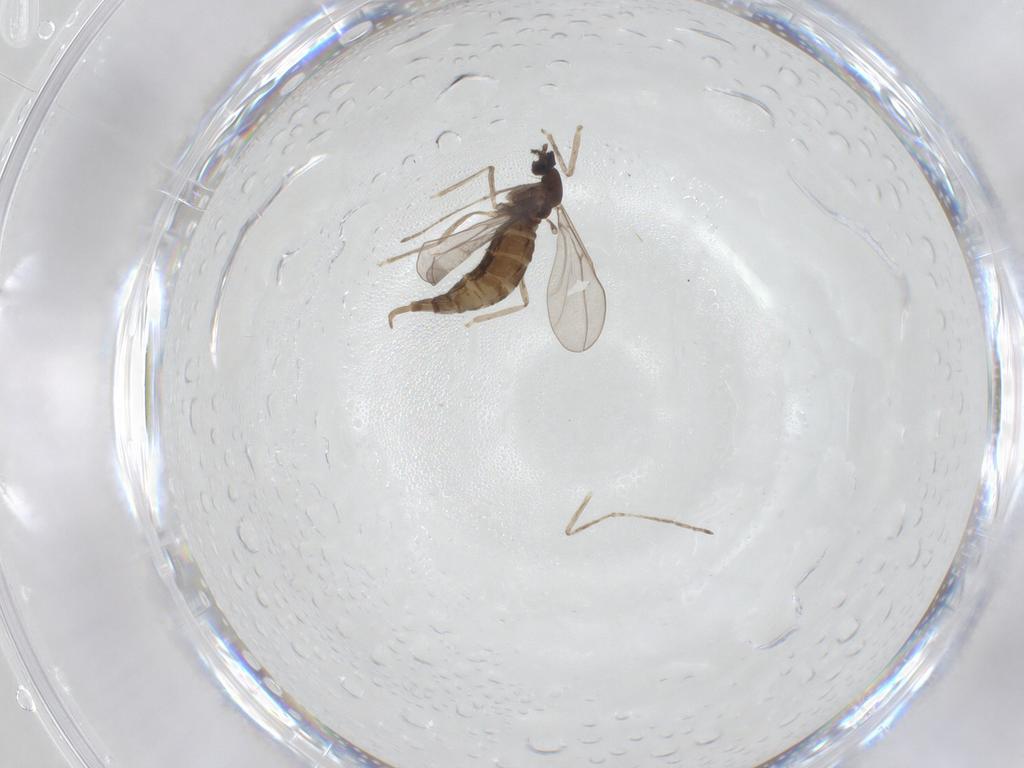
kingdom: Animalia
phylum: Arthropoda
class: Insecta
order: Diptera
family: Cecidomyiidae
